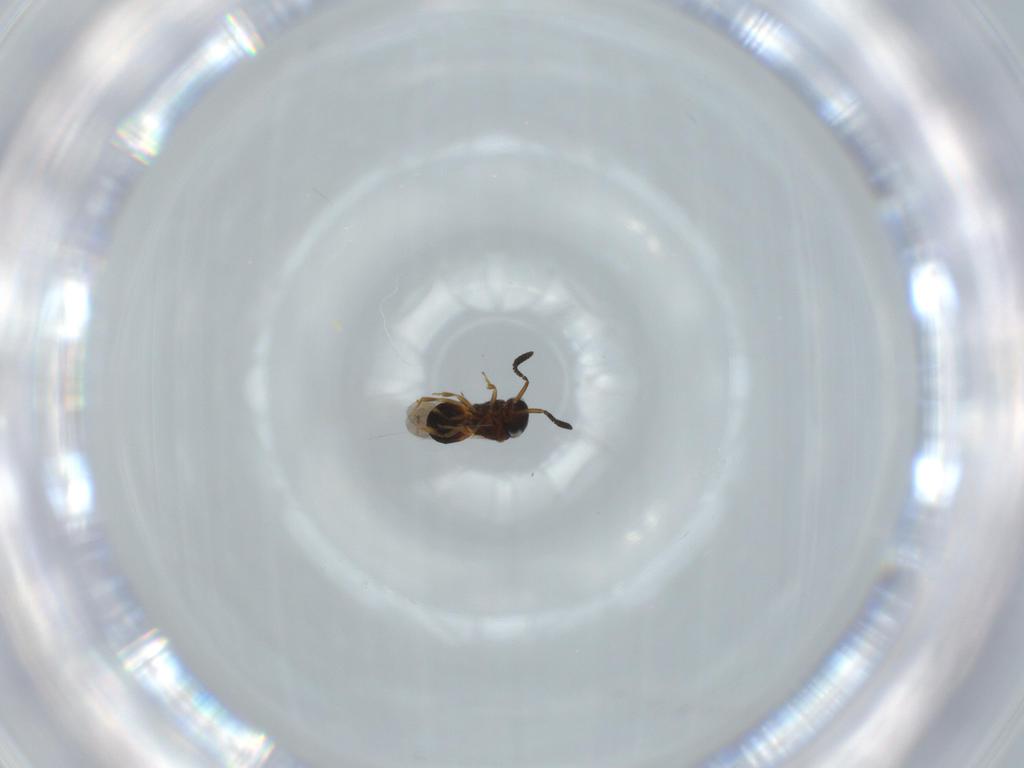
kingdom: Animalia
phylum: Arthropoda
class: Insecta
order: Hymenoptera
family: Scelionidae
